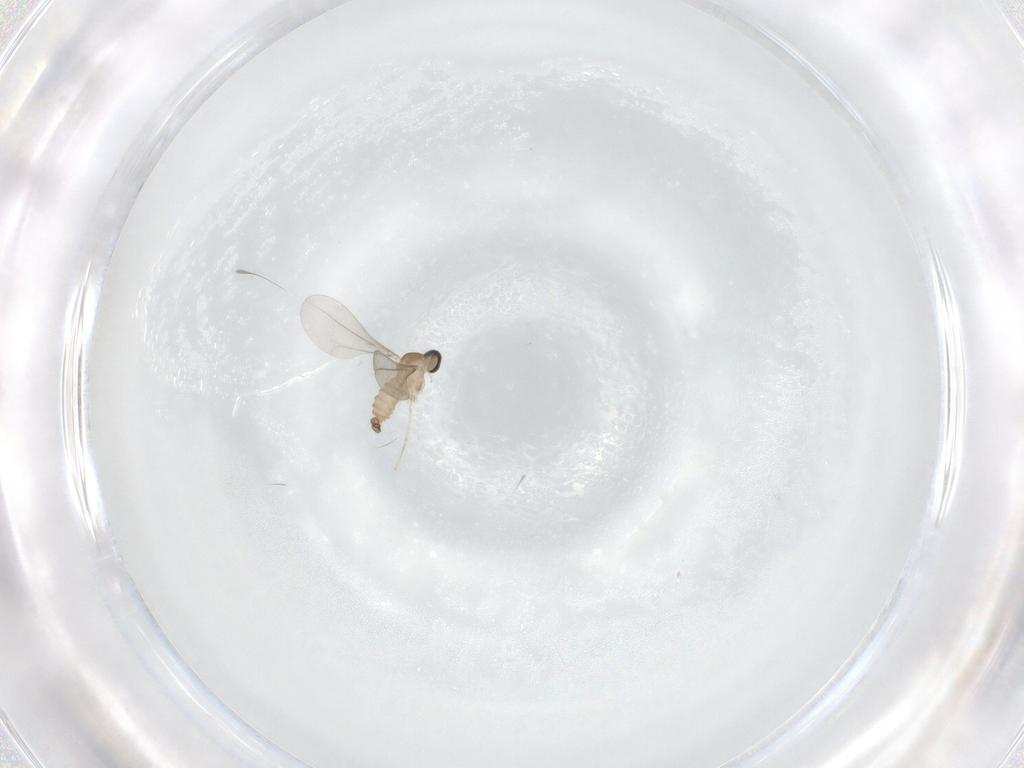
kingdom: Animalia
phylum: Arthropoda
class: Insecta
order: Diptera
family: Cecidomyiidae
